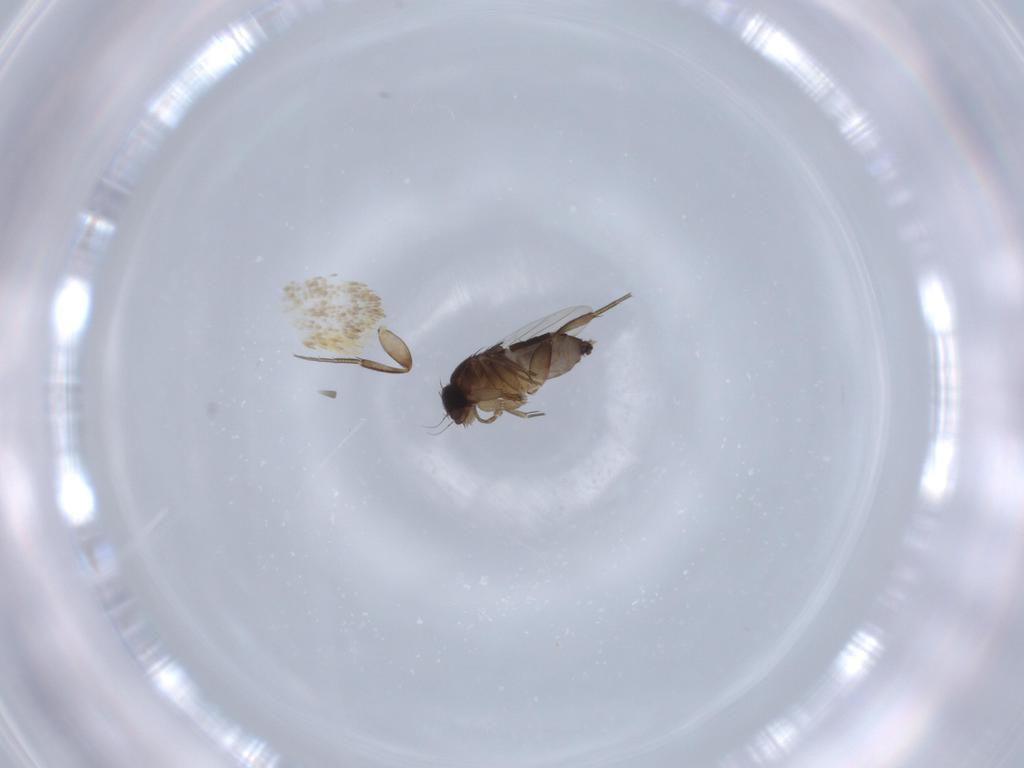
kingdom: Animalia
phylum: Arthropoda
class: Insecta
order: Diptera
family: Phoridae
